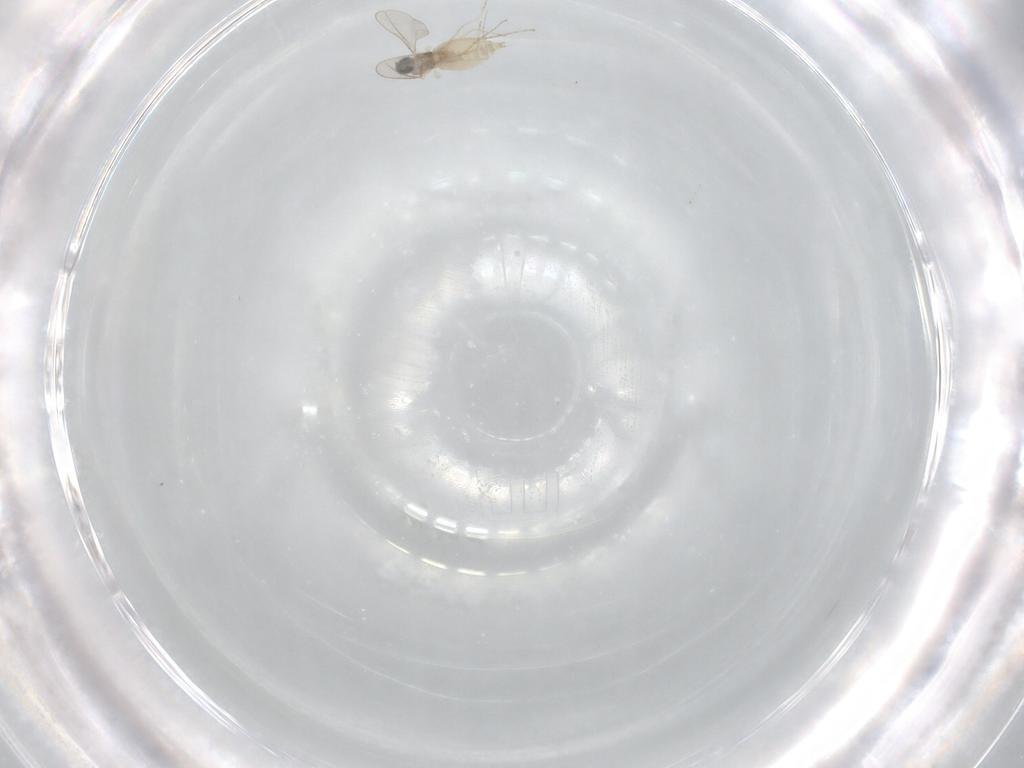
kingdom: Animalia
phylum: Arthropoda
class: Insecta
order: Diptera
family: Cecidomyiidae
